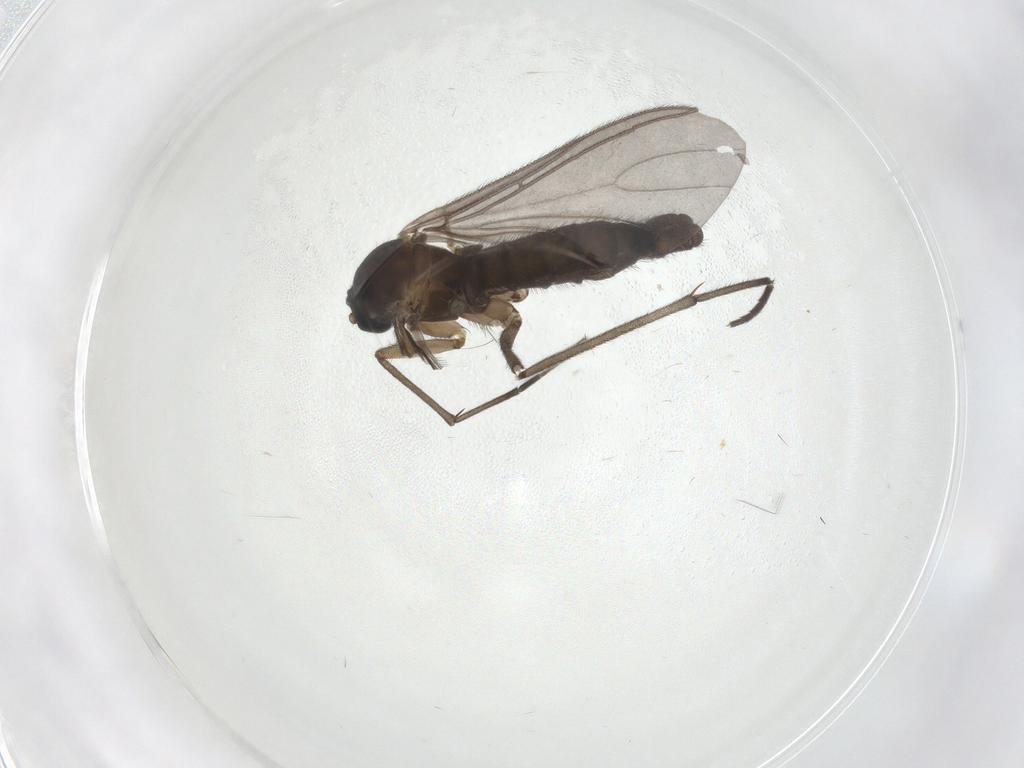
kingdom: Animalia
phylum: Arthropoda
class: Insecta
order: Diptera
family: Sciaridae
